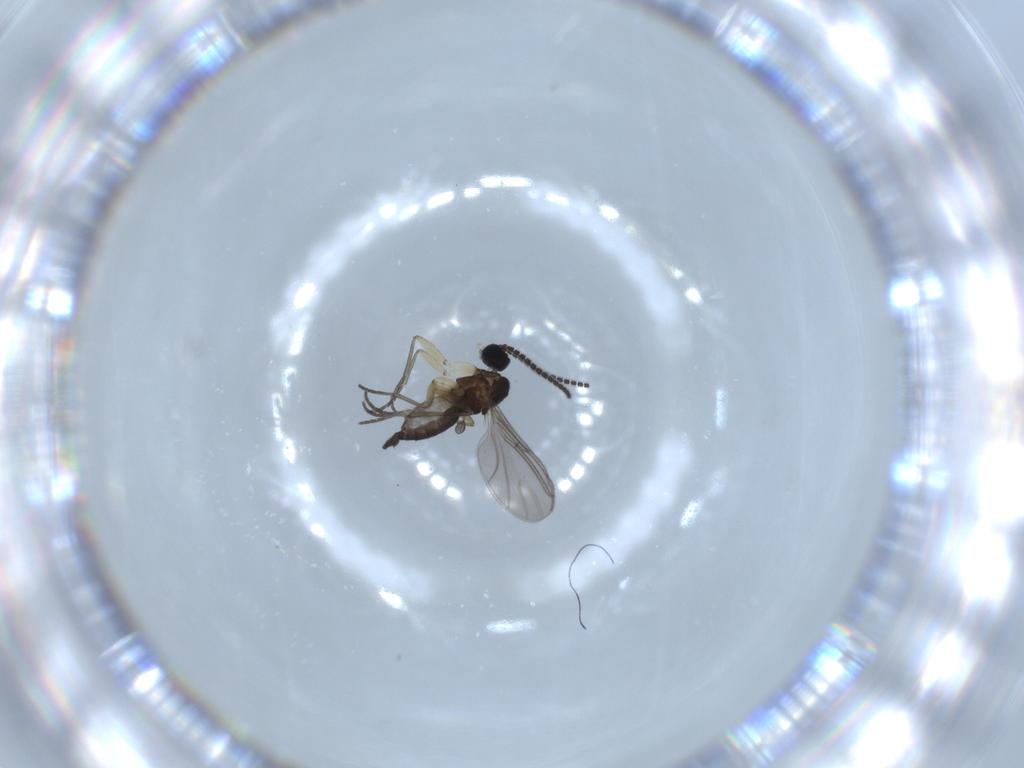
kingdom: Animalia
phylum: Arthropoda
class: Insecta
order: Diptera
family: Sciaridae
